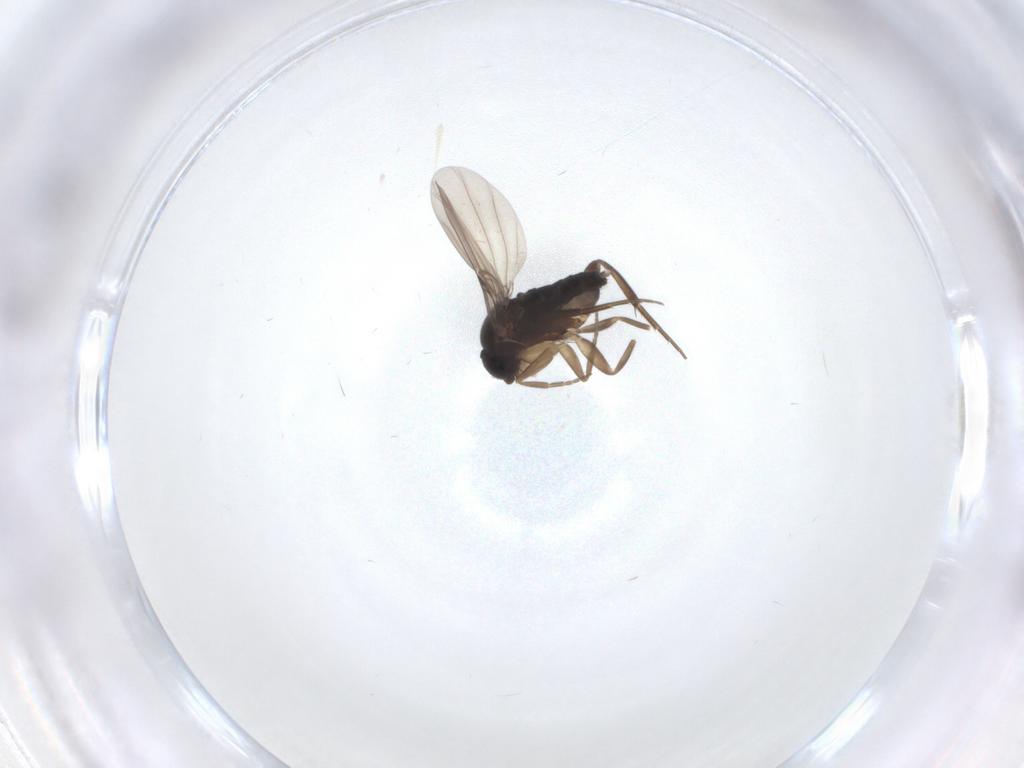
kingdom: Animalia
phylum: Arthropoda
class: Insecta
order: Diptera
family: Phoridae
